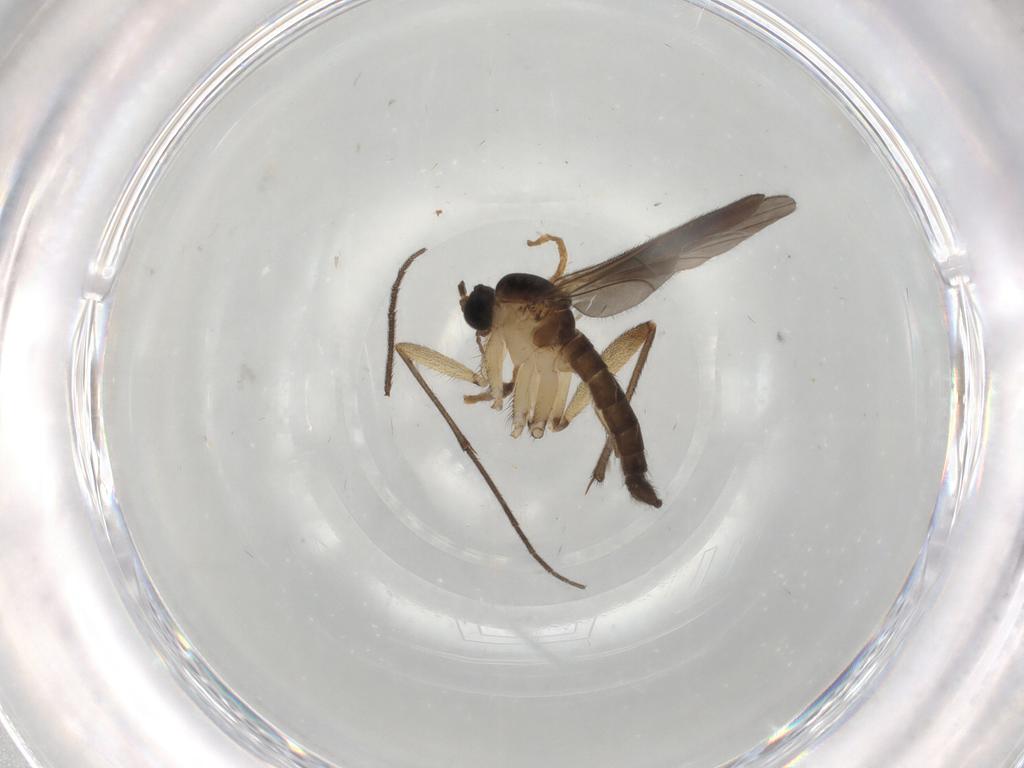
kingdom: Animalia
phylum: Arthropoda
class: Insecta
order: Diptera
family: Sciaridae
